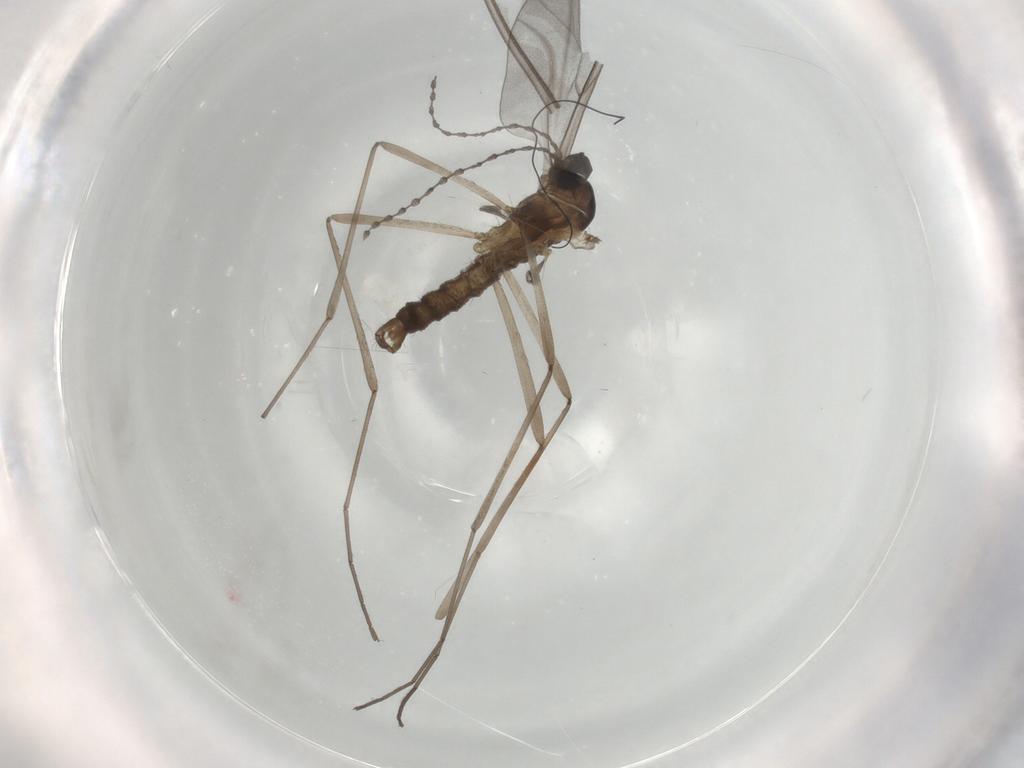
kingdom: Animalia
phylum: Arthropoda
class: Insecta
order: Diptera
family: Cecidomyiidae
